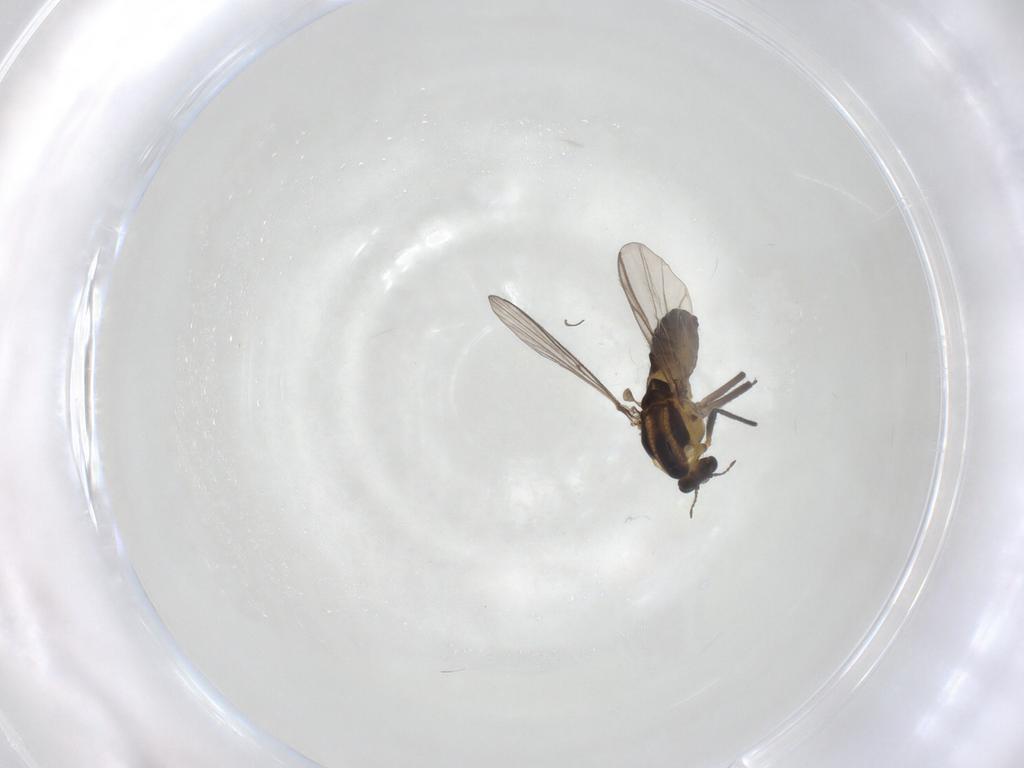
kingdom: Animalia
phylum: Arthropoda
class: Insecta
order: Diptera
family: Chironomidae
